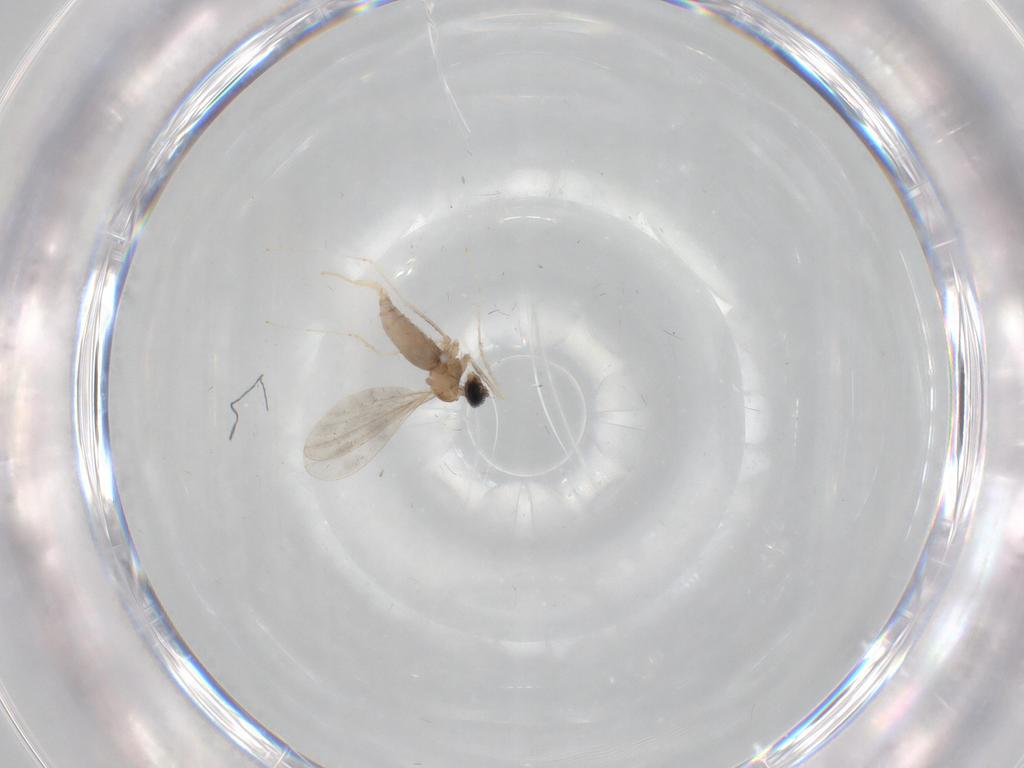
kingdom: Animalia
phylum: Arthropoda
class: Insecta
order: Diptera
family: Cecidomyiidae
